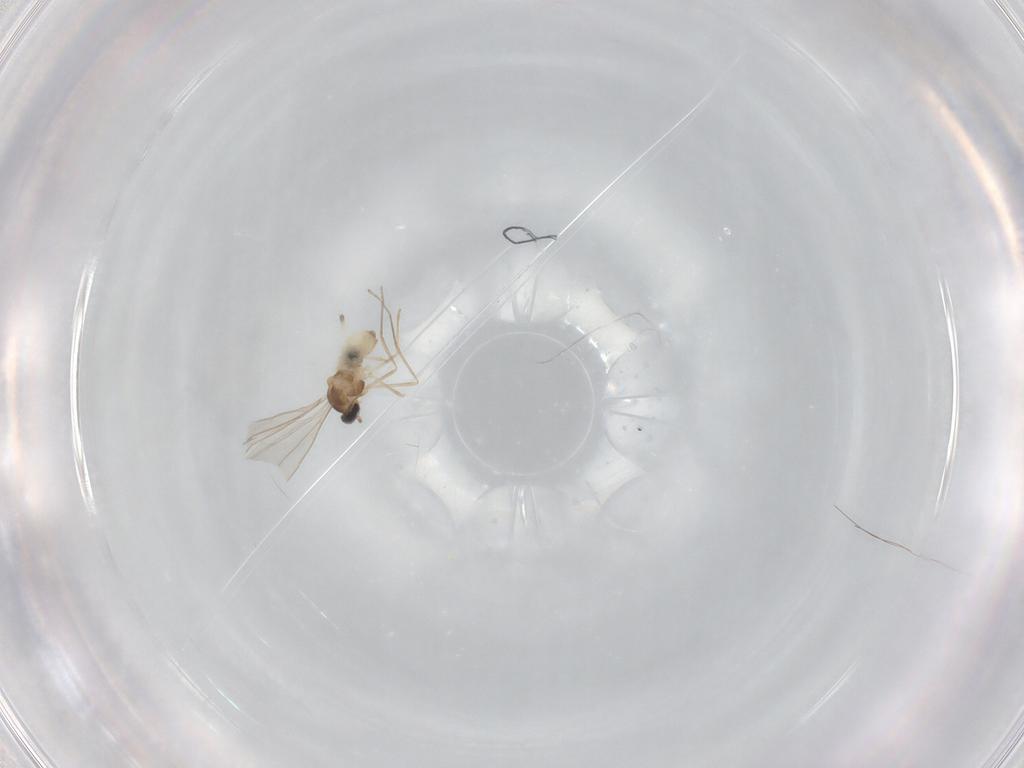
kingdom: Animalia
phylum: Arthropoda
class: Insecta
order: Diptera
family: Cecidomyiidae
